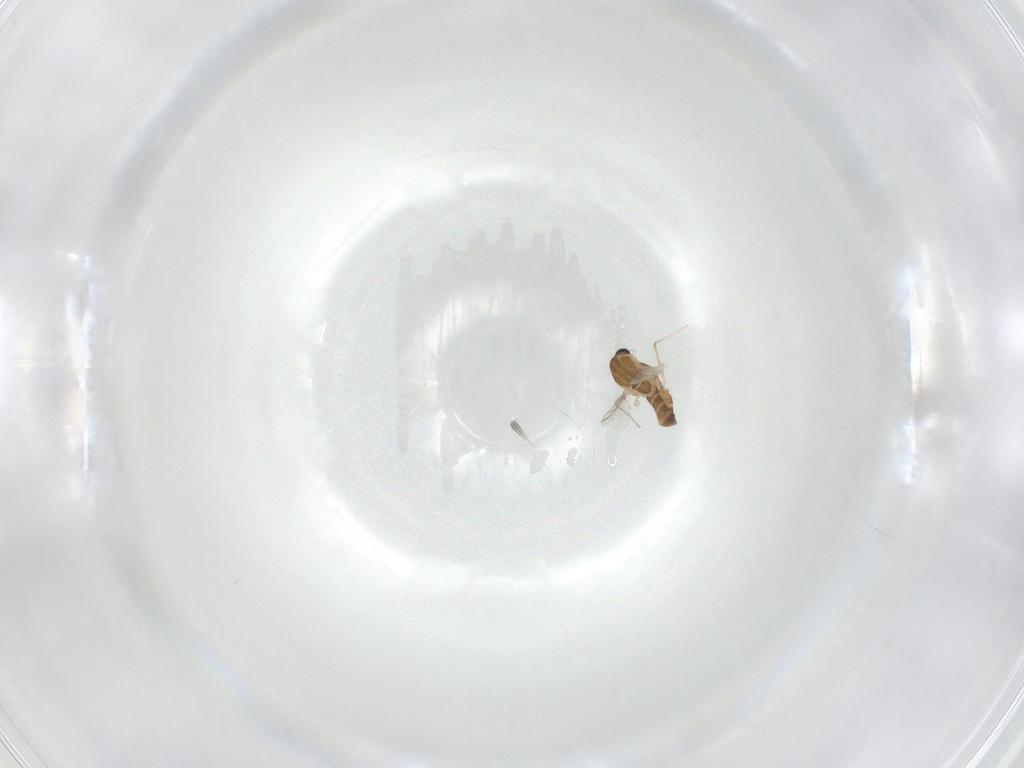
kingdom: Animalia
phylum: Arthropoda
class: Insecta
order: Diptera
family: Chironomidae
